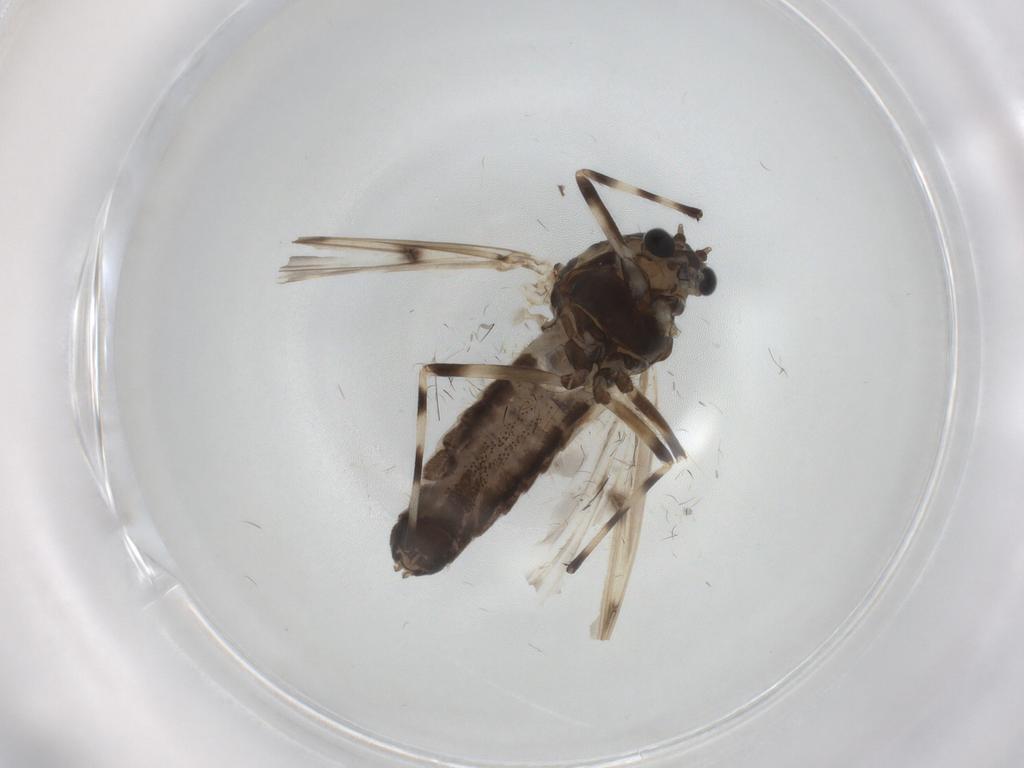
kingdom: Animalia
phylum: Arthropoda
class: Insecta
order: Diptera
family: Chironomidae
